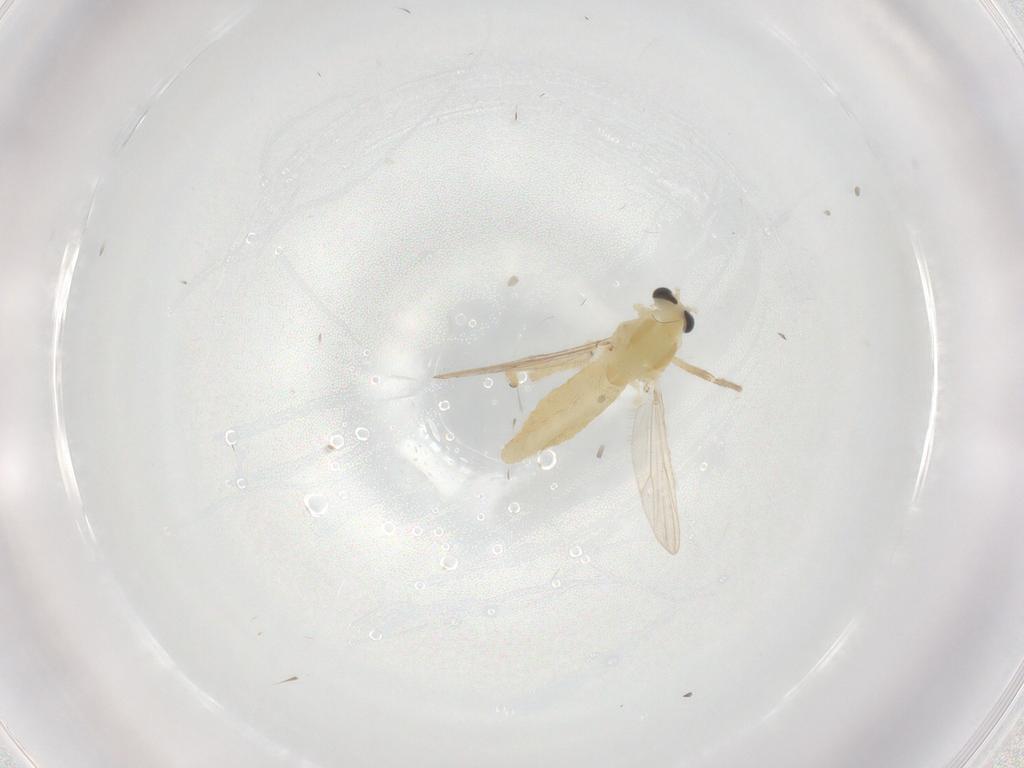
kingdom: Animalia
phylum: Arthropoda
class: Insecta
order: Diptera
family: Chironomidae
